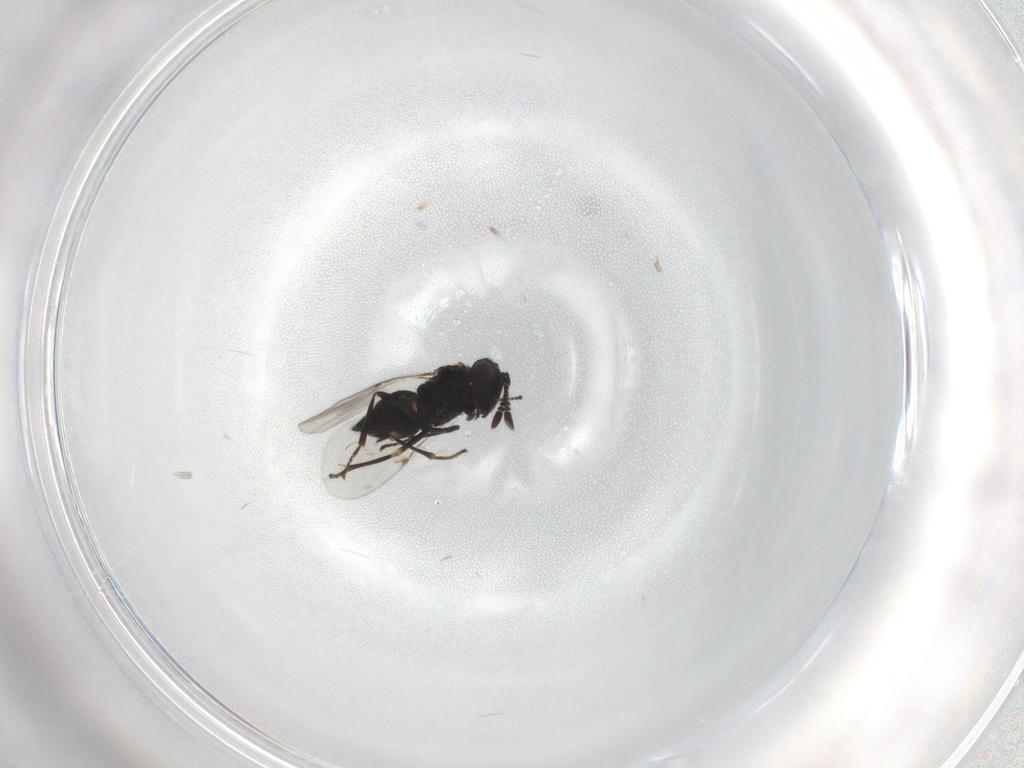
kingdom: Animalia
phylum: Arthropoda
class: Insecta
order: Hymenoptera
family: Encyrtidae
